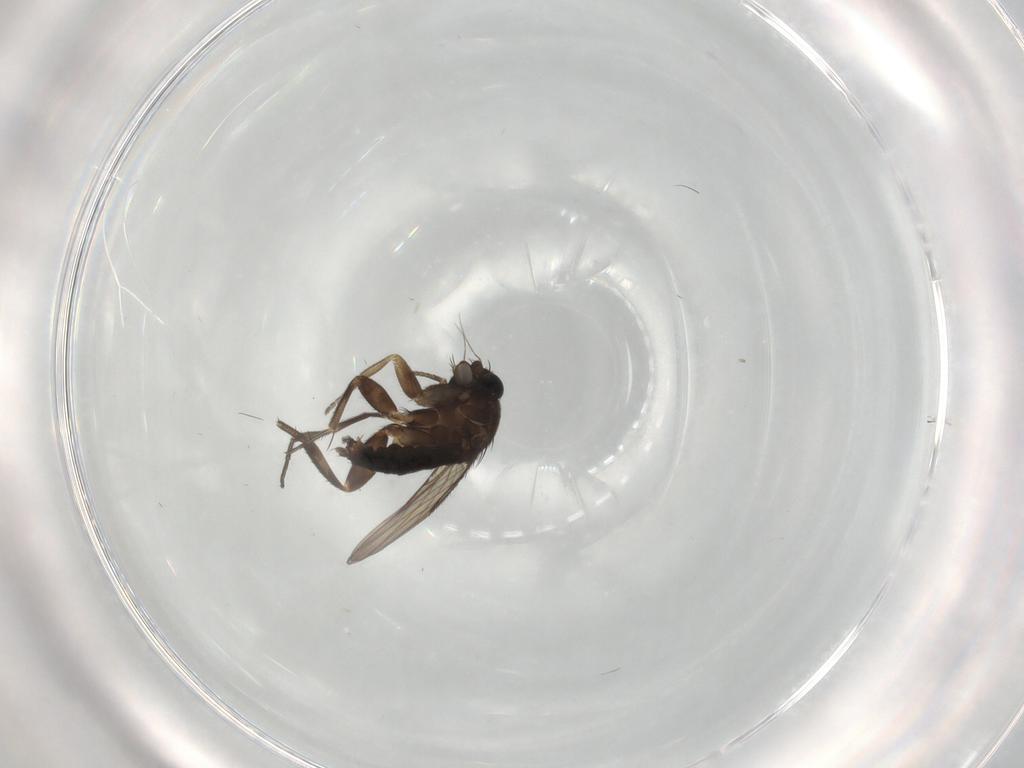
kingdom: Animalia
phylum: Arthropoda
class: Insecta
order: Diptera
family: Phoridae
